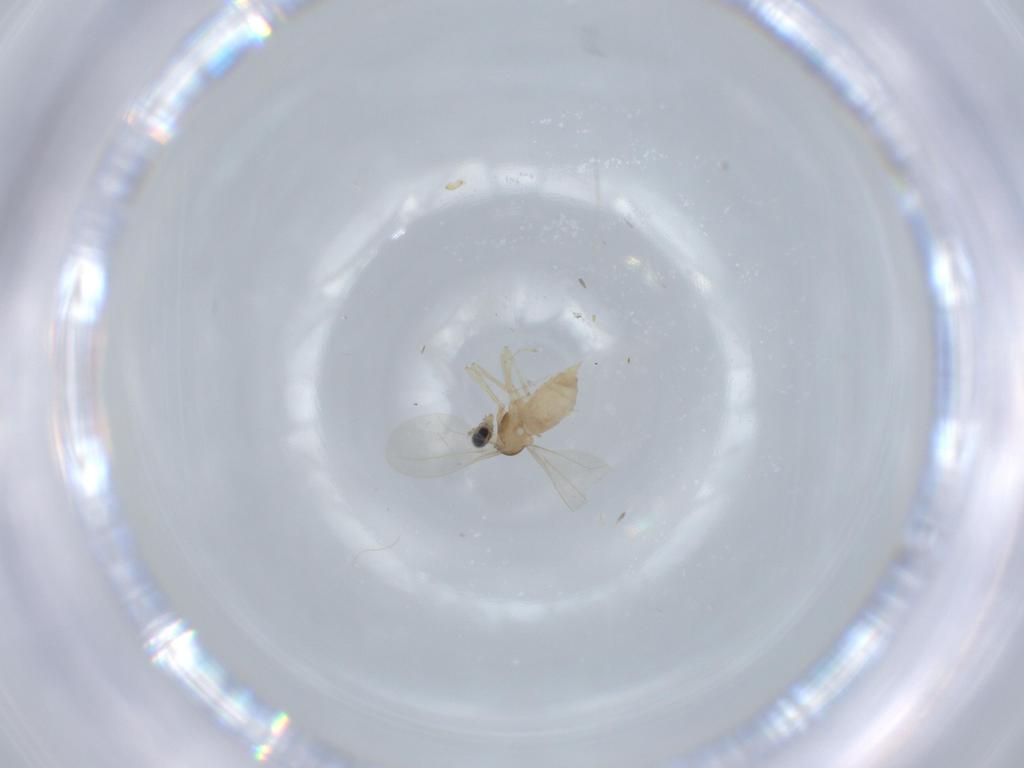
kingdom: Animalia
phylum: Arthropoda
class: Insecta
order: Diptera
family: Cecidomyiidae
